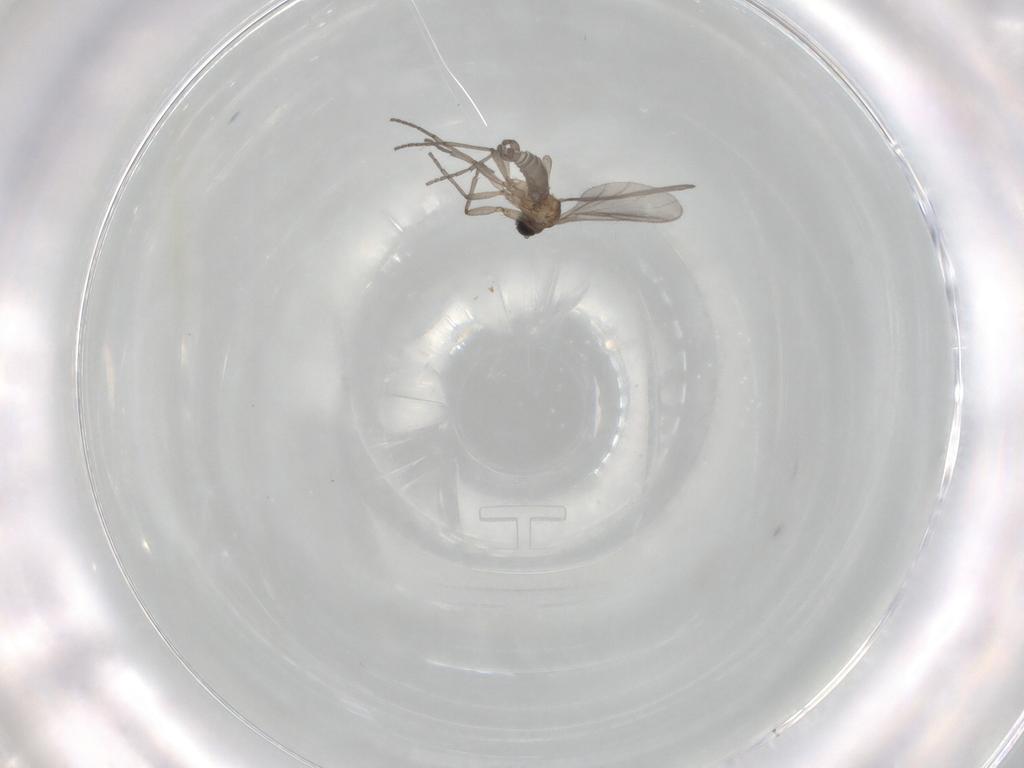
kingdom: Animalia
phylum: Arthropoda
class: Insecta
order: Diptera
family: Sciaridae
